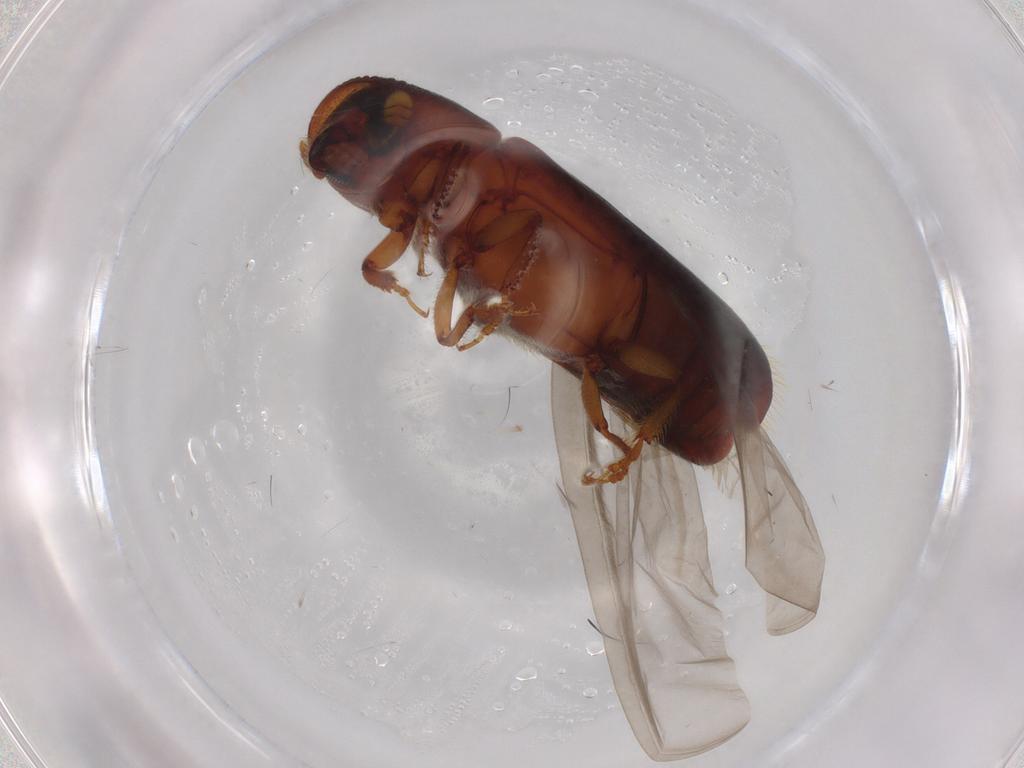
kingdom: Animalia
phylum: Arthropoda
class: Insecta
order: Coleoptera
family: Curculionidae
